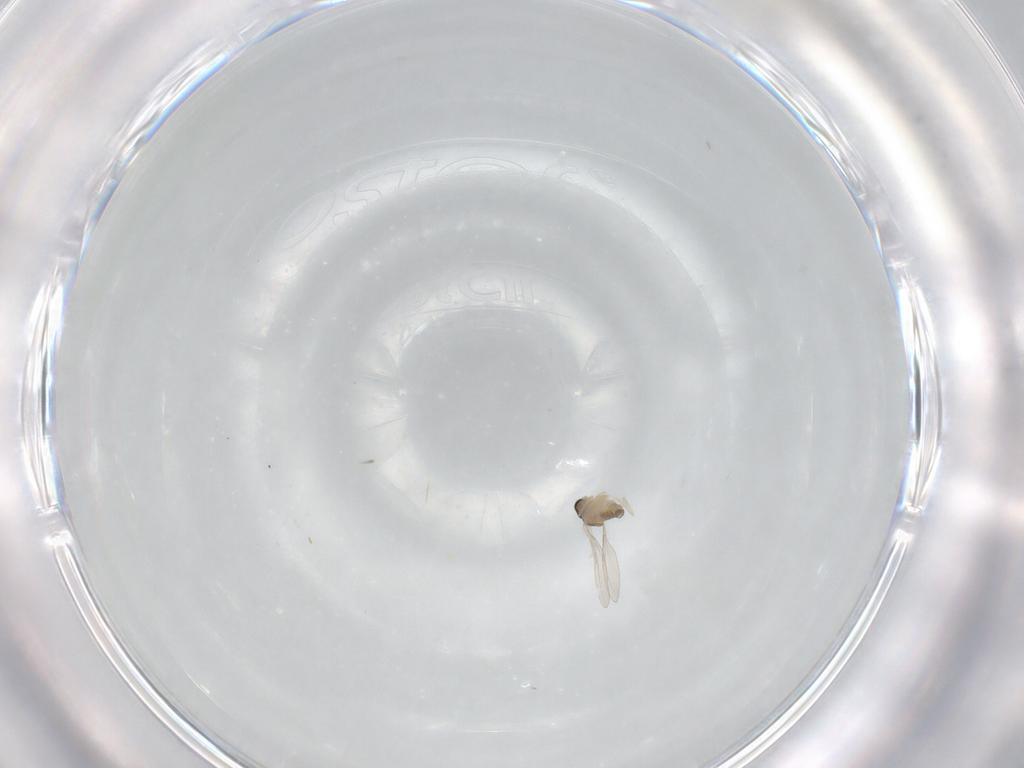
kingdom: Animalia
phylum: Arthropoda
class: Insecta
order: Diptera
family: Cecidomyiidae
